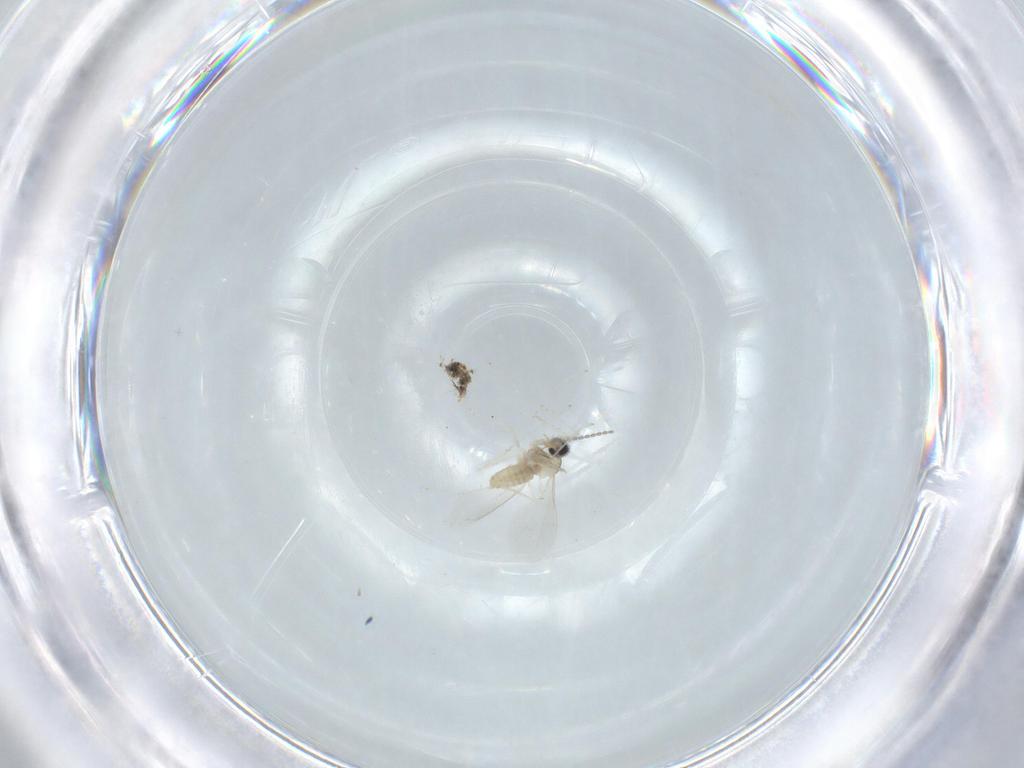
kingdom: Animalia
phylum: Arthropoda
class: Insecta
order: Diptera
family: Cecidomyiidae
